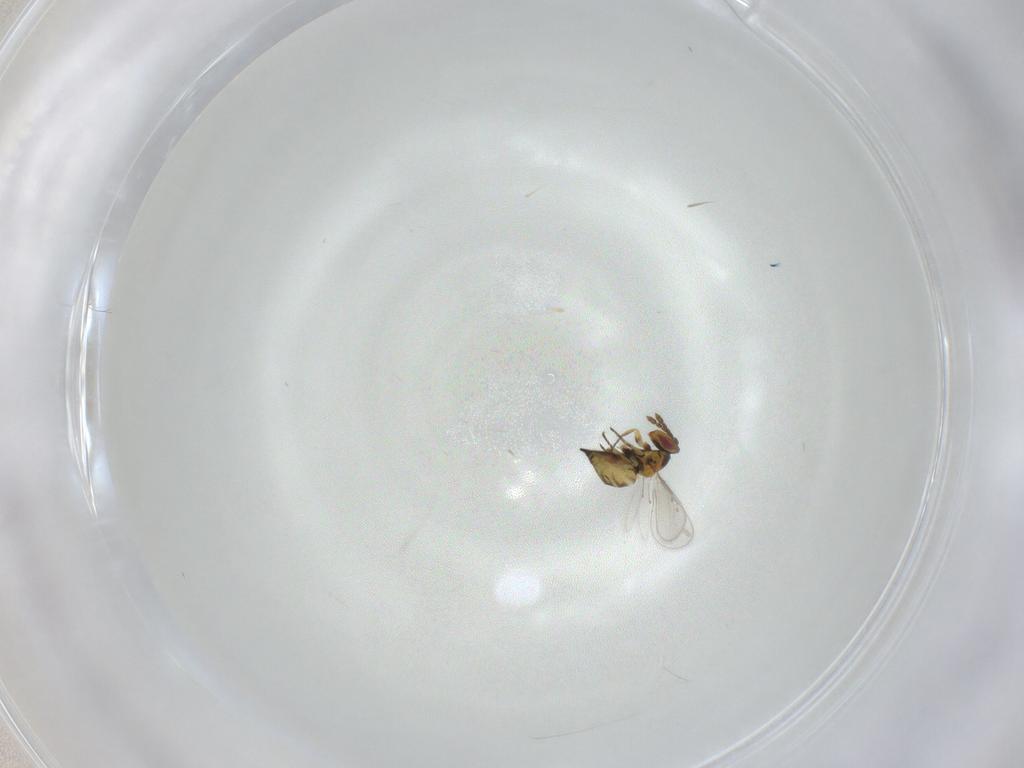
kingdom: Animalia
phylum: Arthropoda
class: Insecta
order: Hymenoptera
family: Eulophidae
